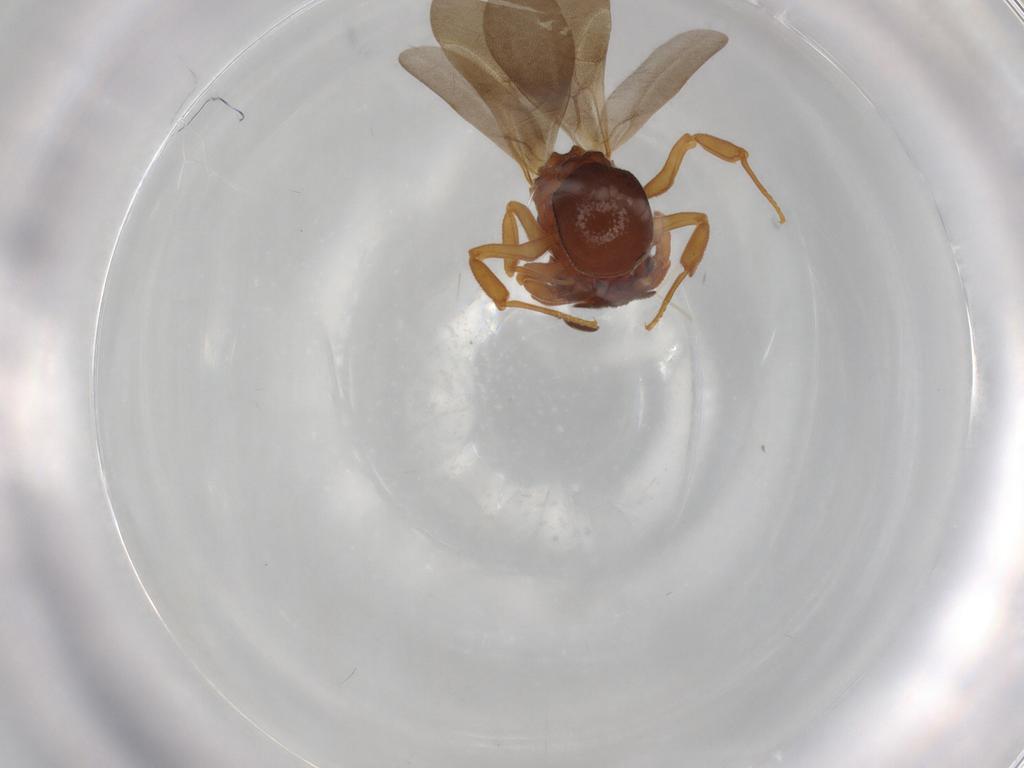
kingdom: Animalia
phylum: Arthropoda
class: Insecta
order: Hymenoptera
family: Formicidae
